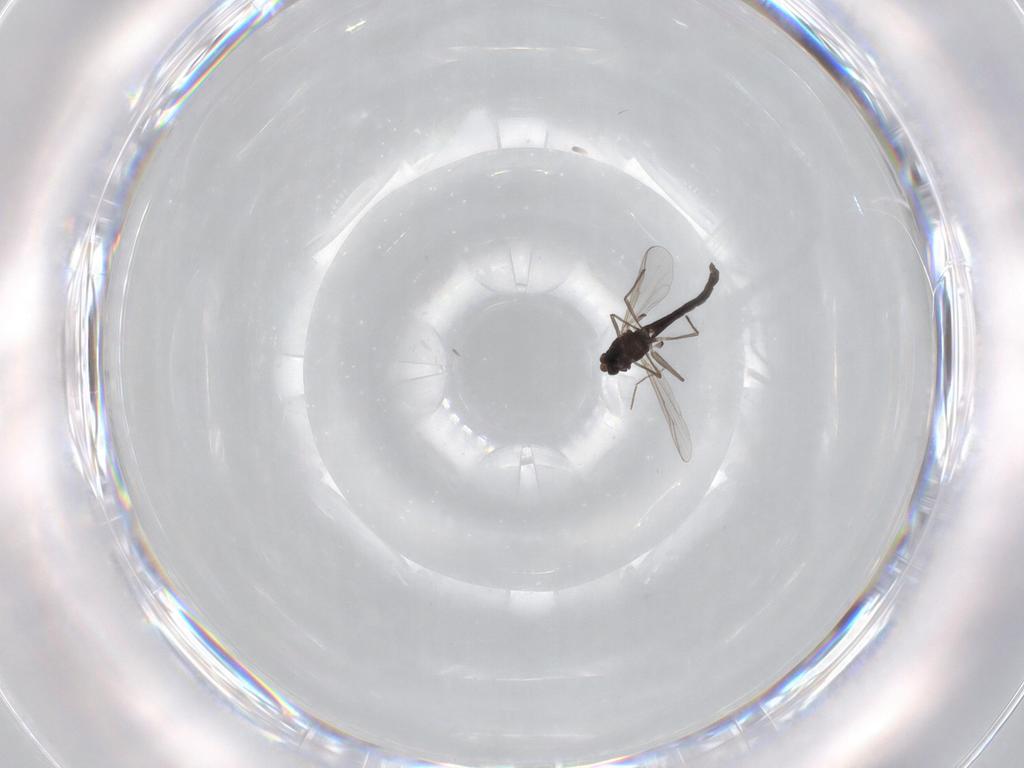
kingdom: Animalia
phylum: Arthropoda
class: Insecta
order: Diptera
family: Chironomidae
